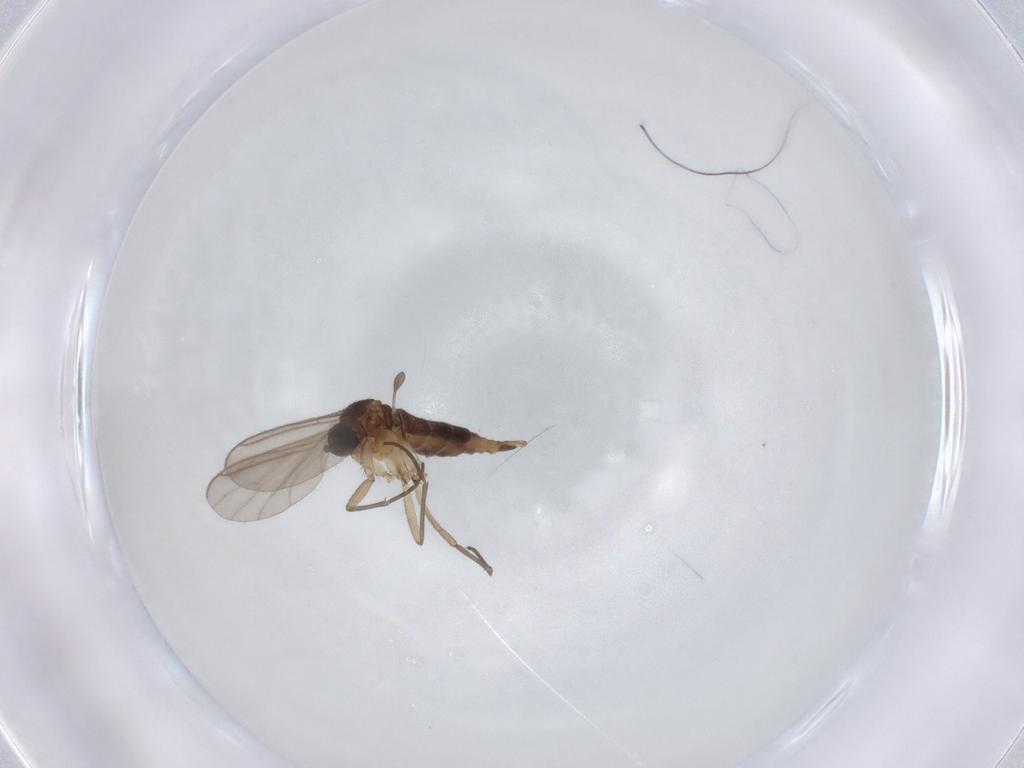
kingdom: Animalia
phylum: Arthropoda
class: Insecta
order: Diptera
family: Sciaridae
